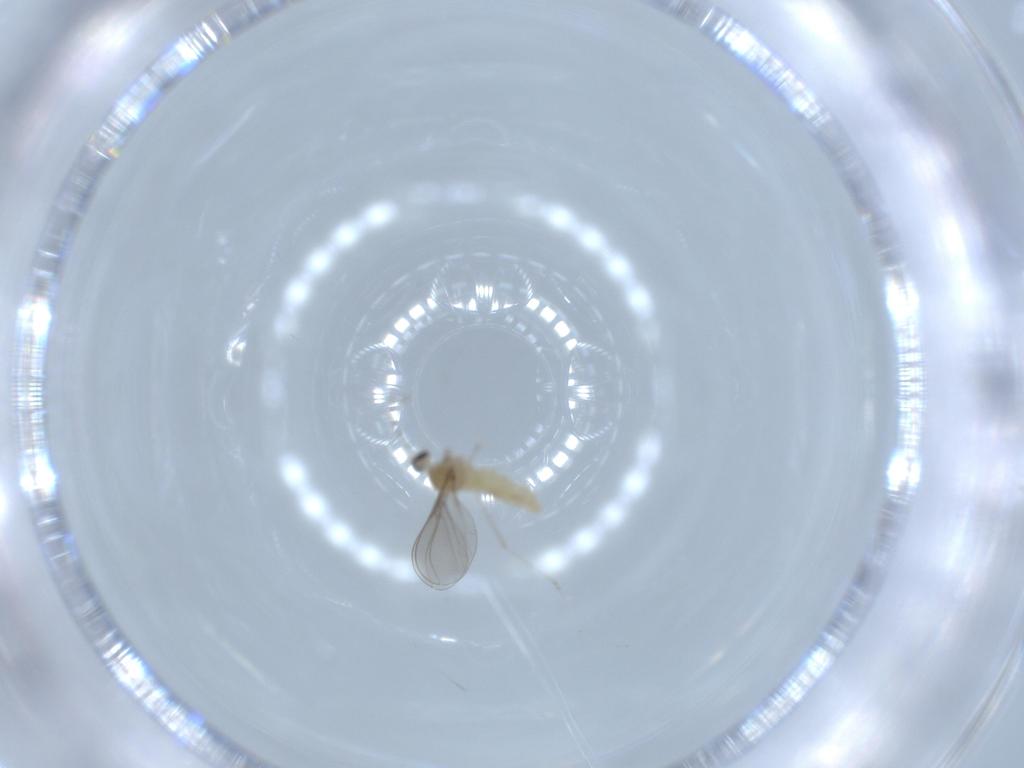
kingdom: Animalia
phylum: Arthropoda
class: Insecta
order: Diptera
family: Cecidomyiidae
